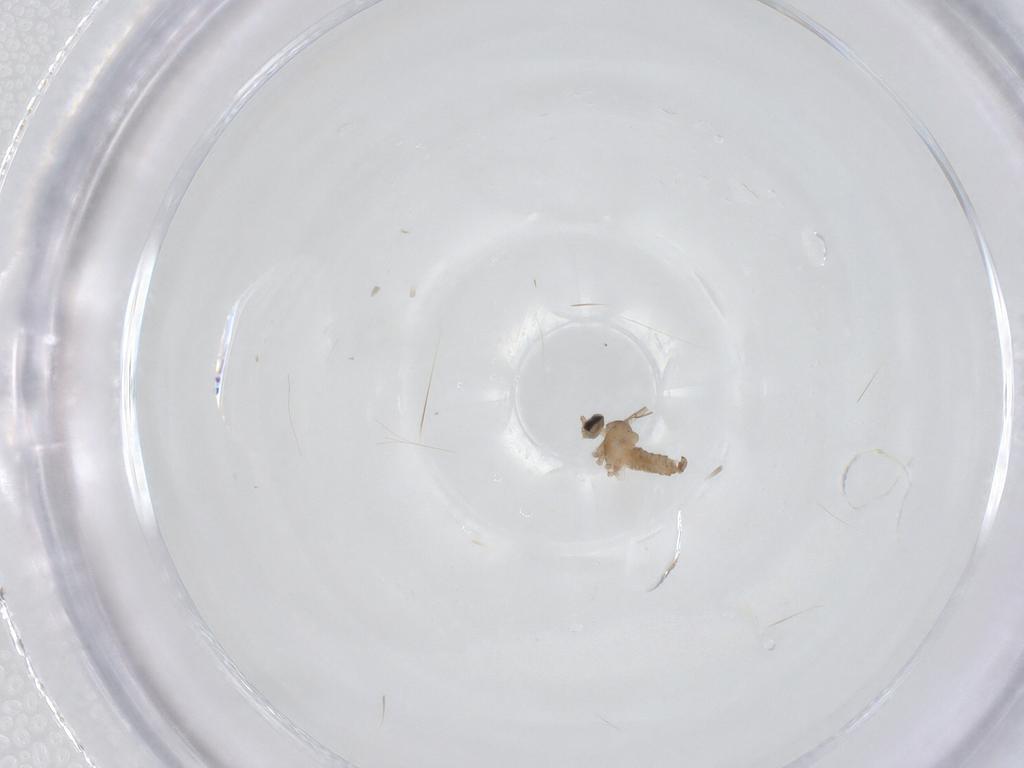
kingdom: Animalia
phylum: Arthropoda
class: Insecta
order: Diptera
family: Cecidomyiidae
